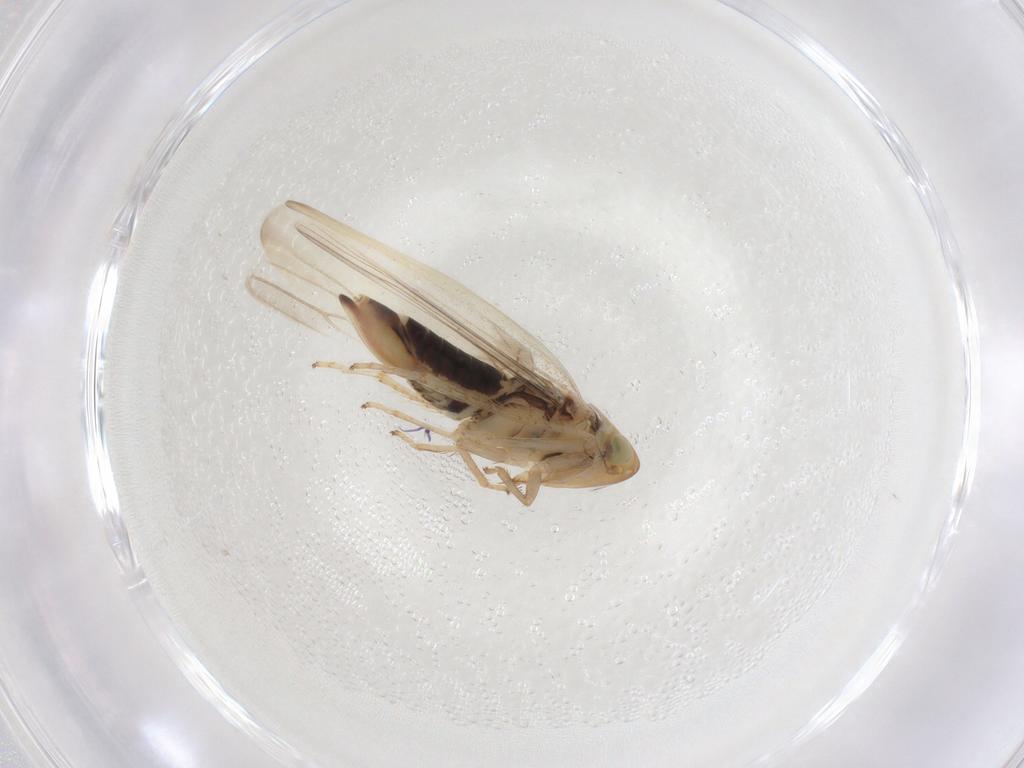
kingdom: Animalia
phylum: Arthropoda
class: Insecta
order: Hemiptera
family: Cicadellidae
